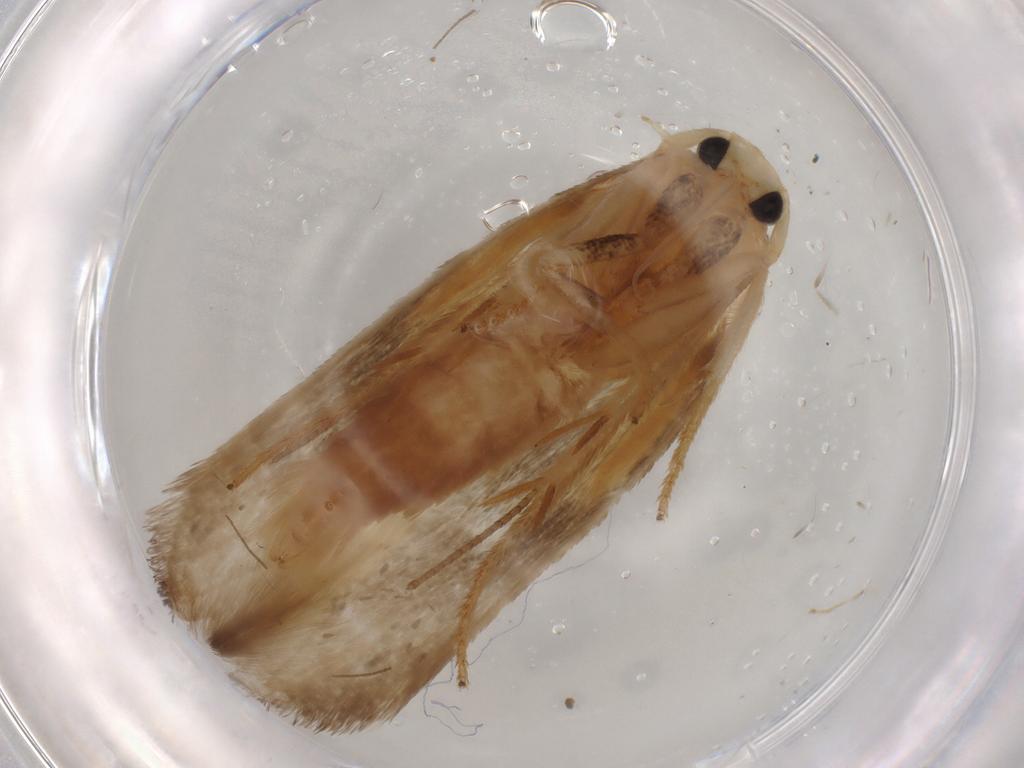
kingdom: Animalia
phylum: Arthropoda
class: Insecta
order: Lepidoptera
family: Geometridae
